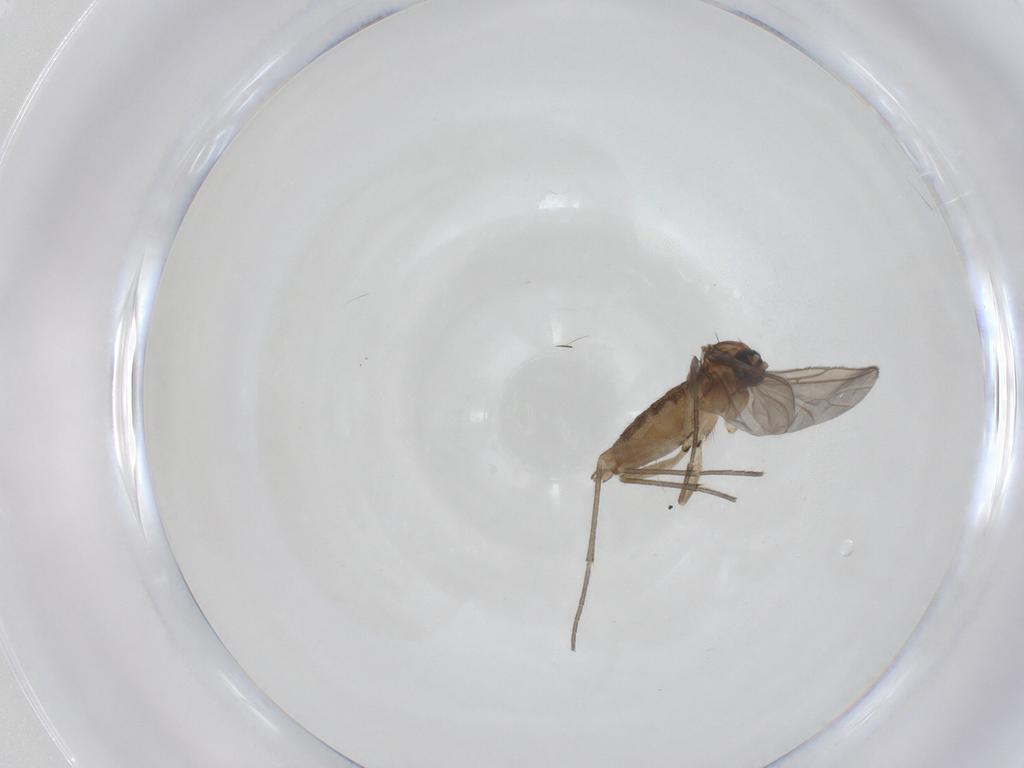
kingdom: Animalia
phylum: Arthropoda
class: Insecta
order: Diptera
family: Sciaridae
